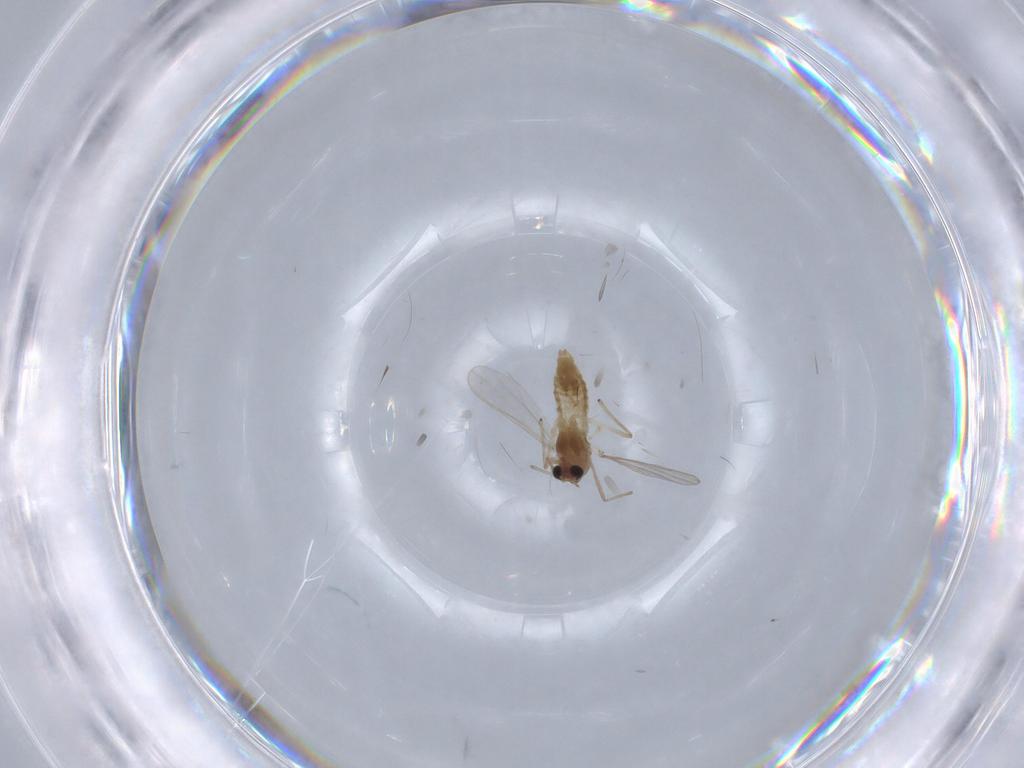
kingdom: Animalia
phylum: Arthropoda
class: Insecta
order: Diptera
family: Chironomidae
